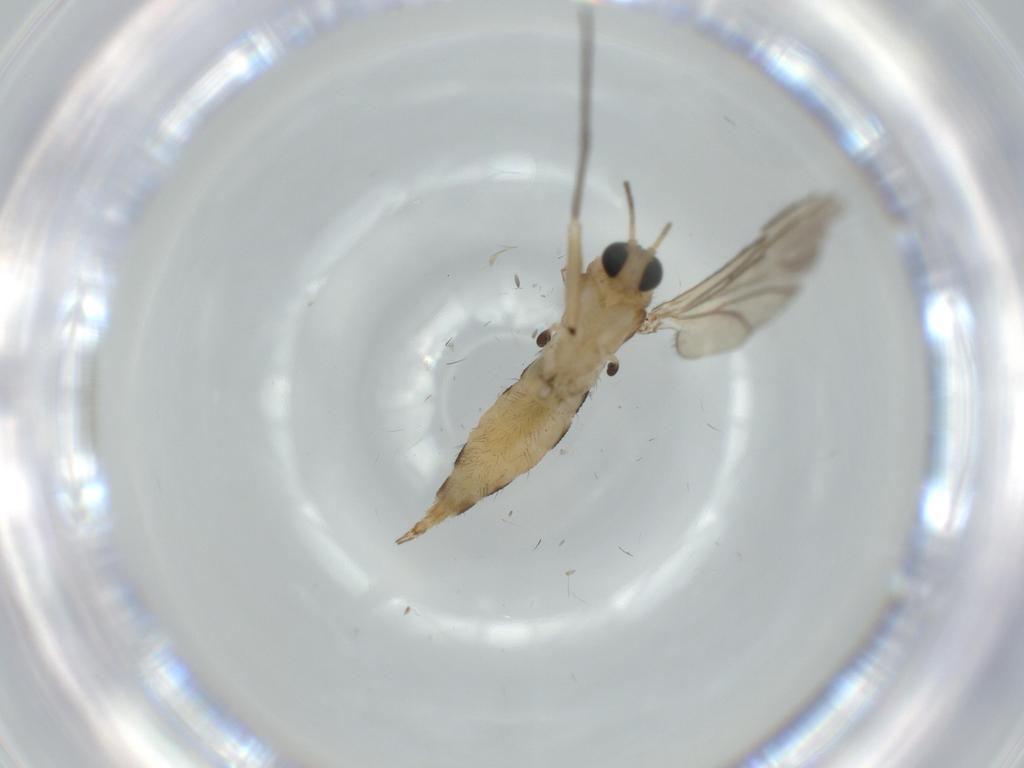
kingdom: Animalia
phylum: Arthropoda
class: Insecta
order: Diptera
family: Sciaridae
